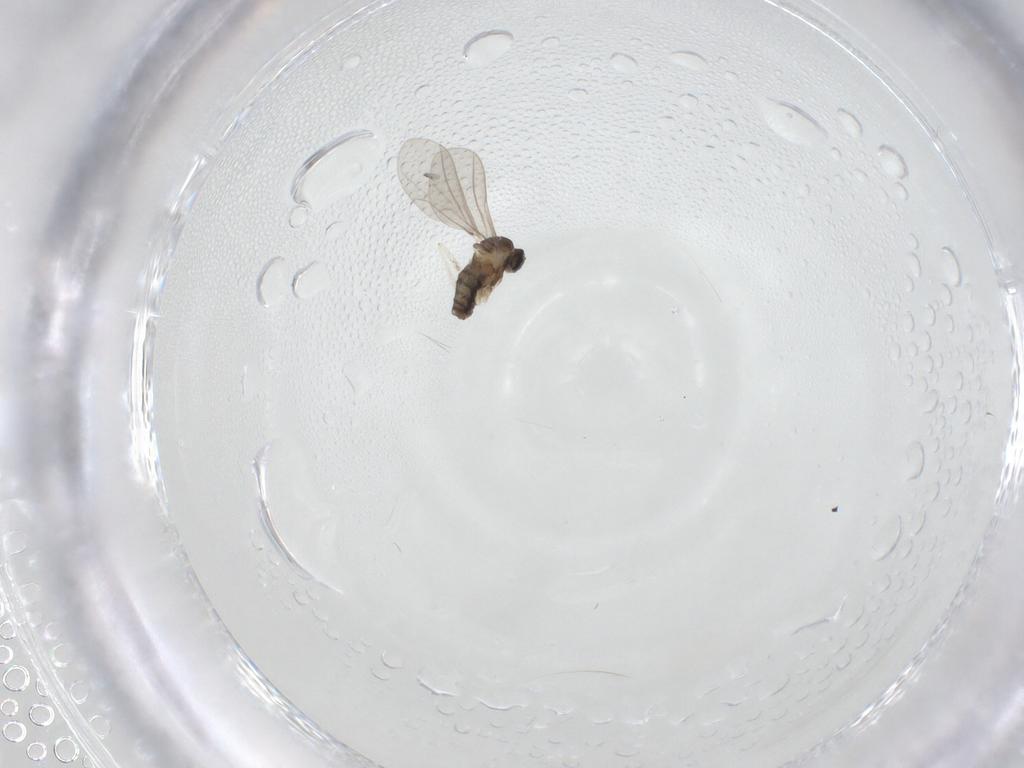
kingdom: Animalia
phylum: Arthropoda
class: Insecta
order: Diptera
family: Cecidomyiidae
